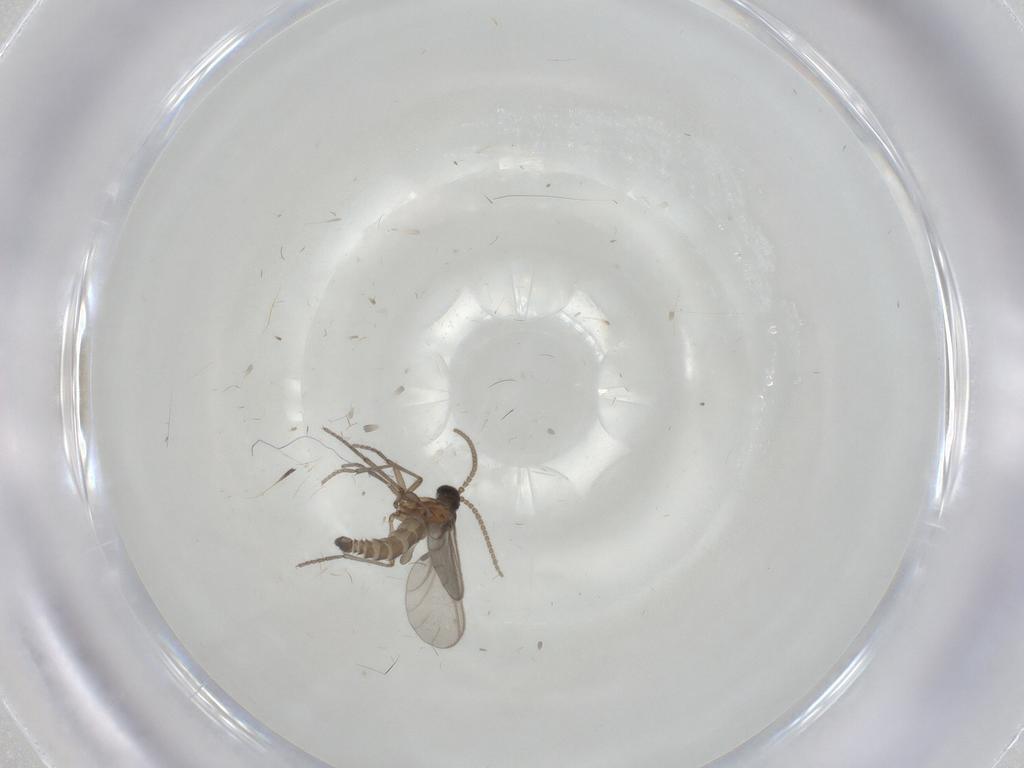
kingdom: Animalia
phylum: Arthropoda
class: Insecta
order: Diptera
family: Sciaridae
